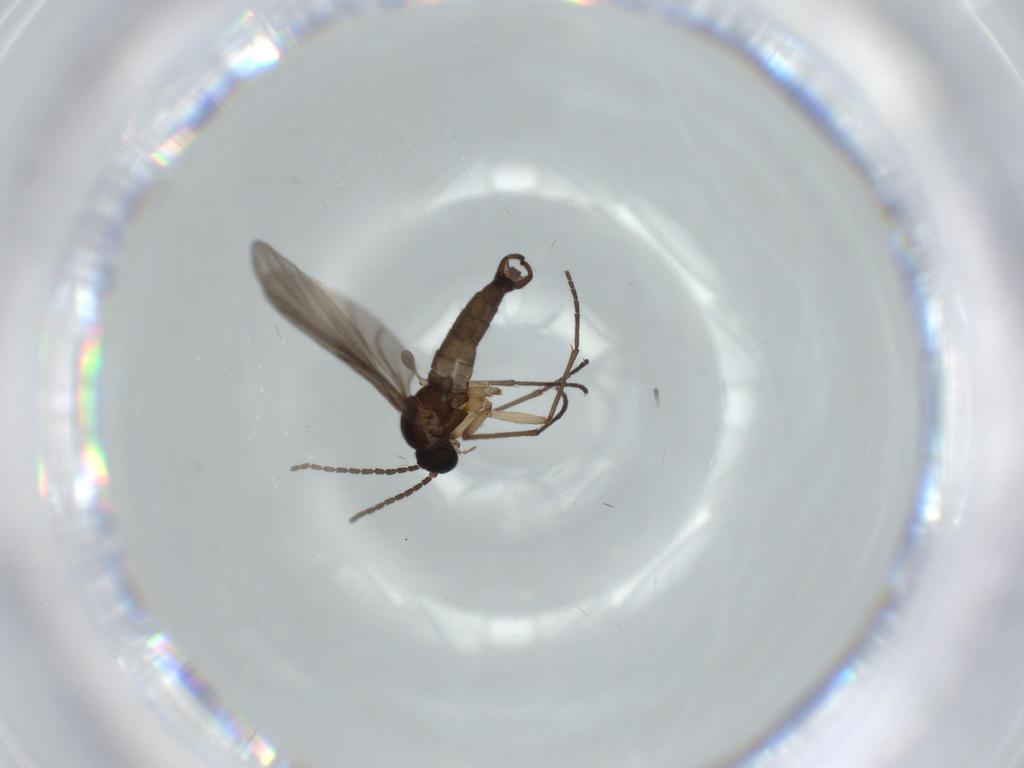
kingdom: Animalia
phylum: Arthropoda
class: Insecta
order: Diptera
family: Sciaridae
